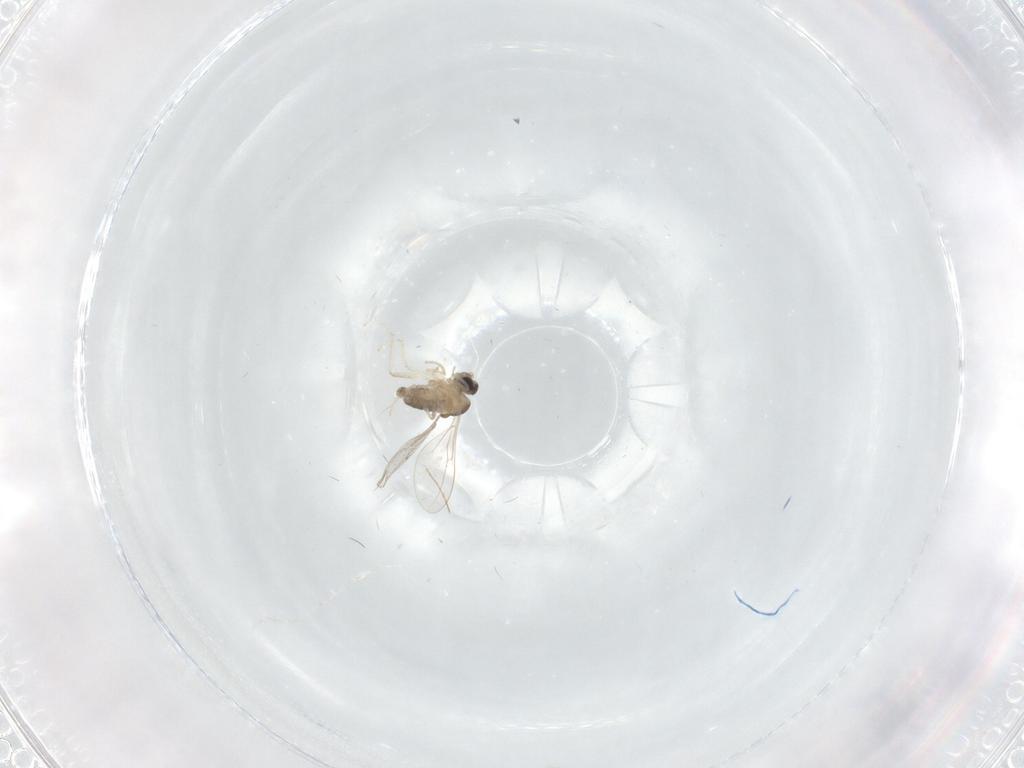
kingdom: Animalia
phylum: Arthropoda
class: Insecta
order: Diptera
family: Cecidomyiidae
